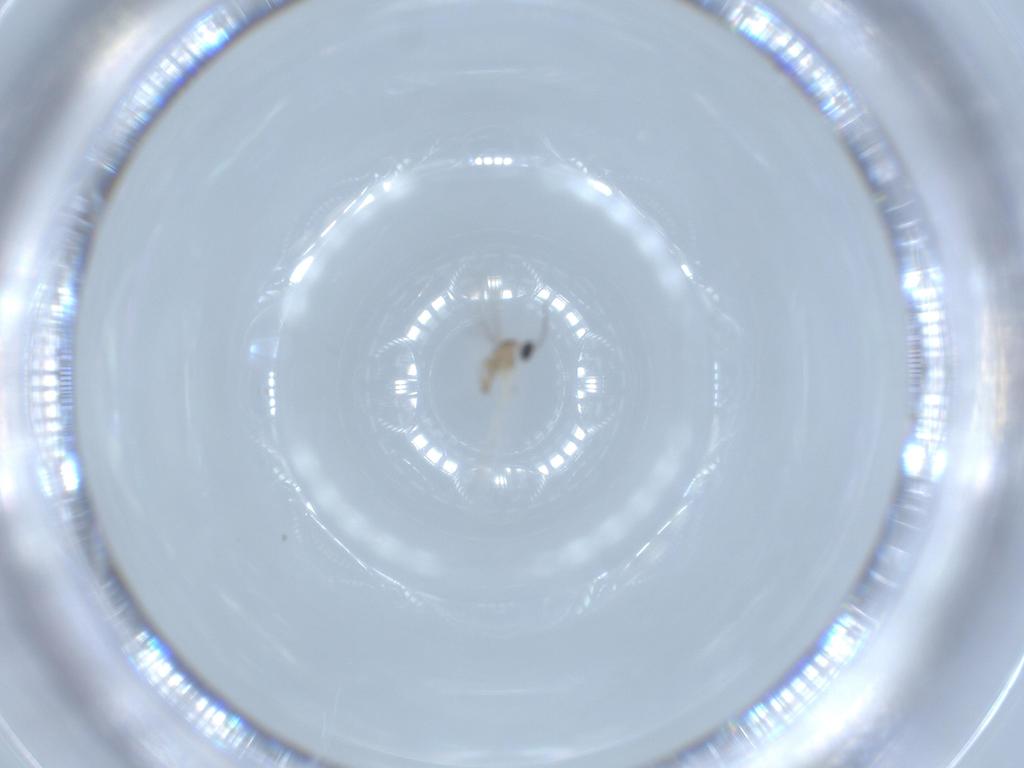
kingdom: Animalia
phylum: Arthropoda
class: Insecta
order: Diptera
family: Cecidomyiidae
